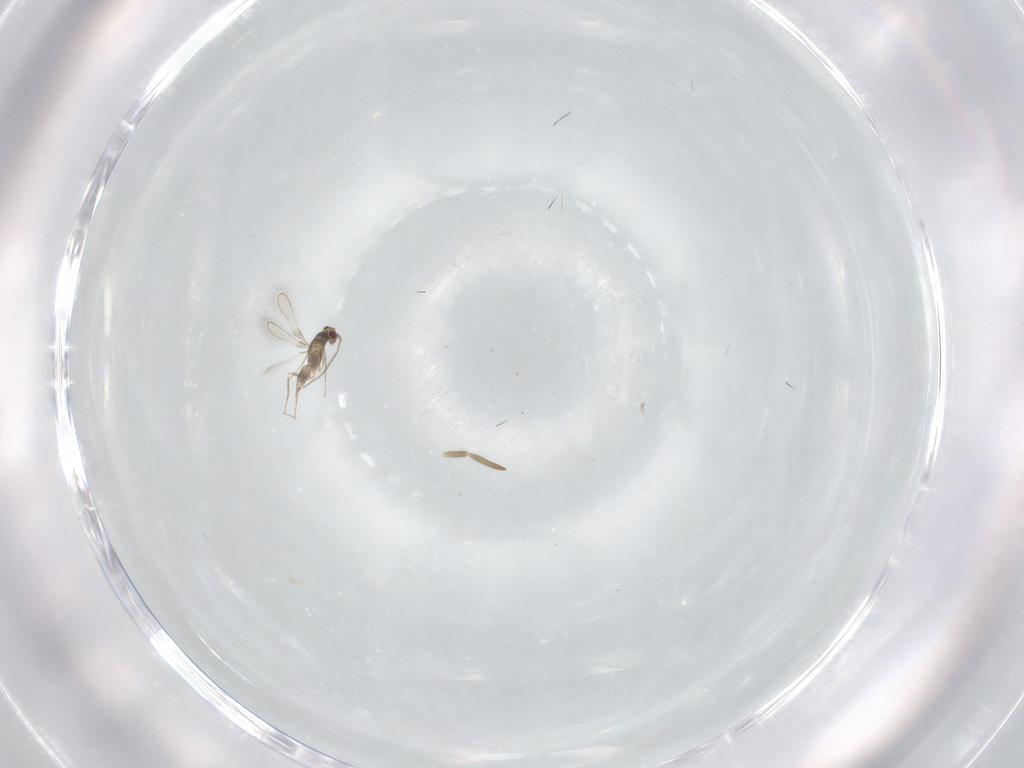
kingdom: Animalia
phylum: Arthropoda
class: Insecta
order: Hymenoptera
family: Mymaridae
